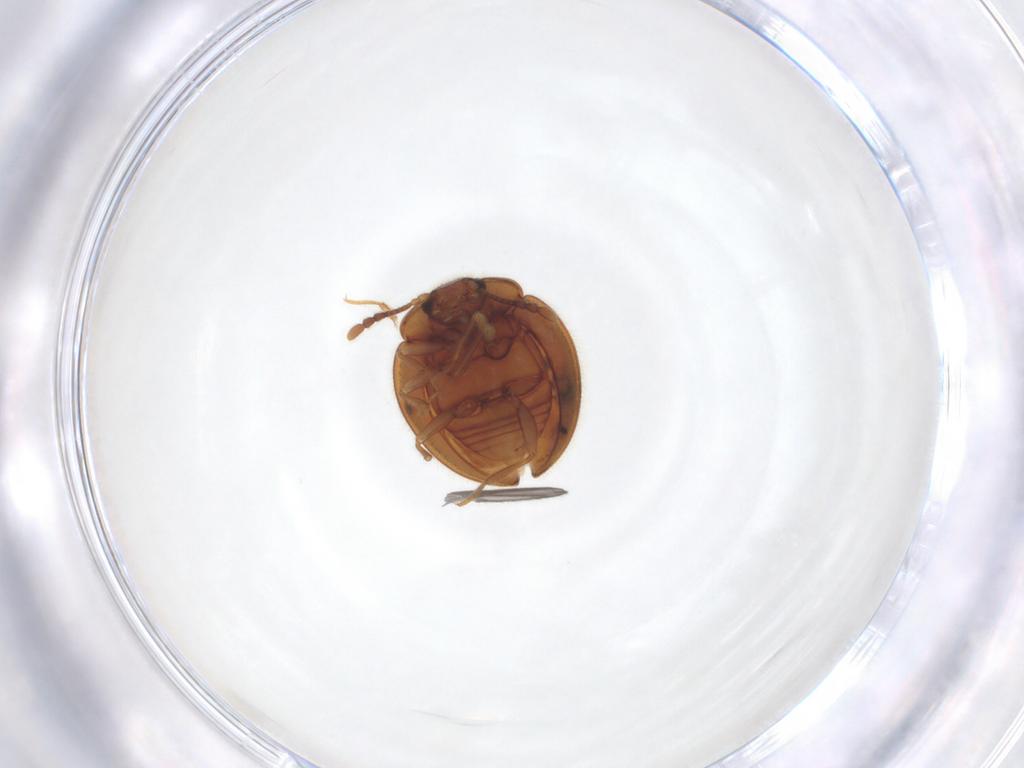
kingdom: Animalia
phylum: Arthropoda
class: Insecta
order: Coleoptera
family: Anamorphidae
